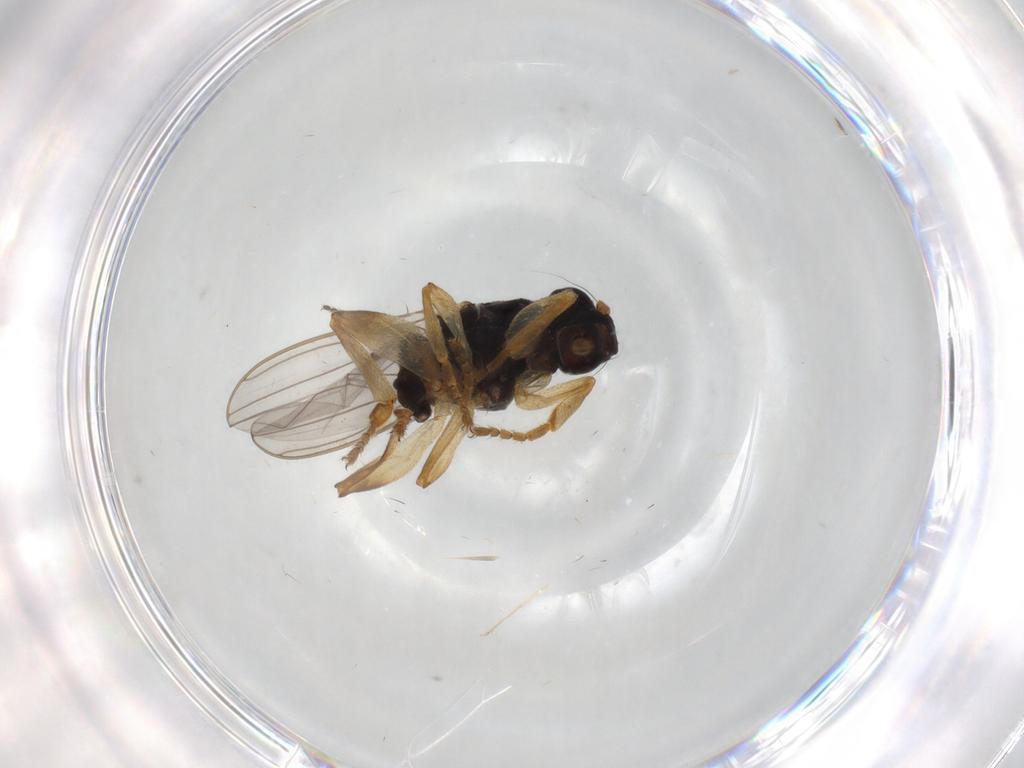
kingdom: Animalia
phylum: Arthropoda
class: Insecta
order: Diptera
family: Sphaeroceridae
